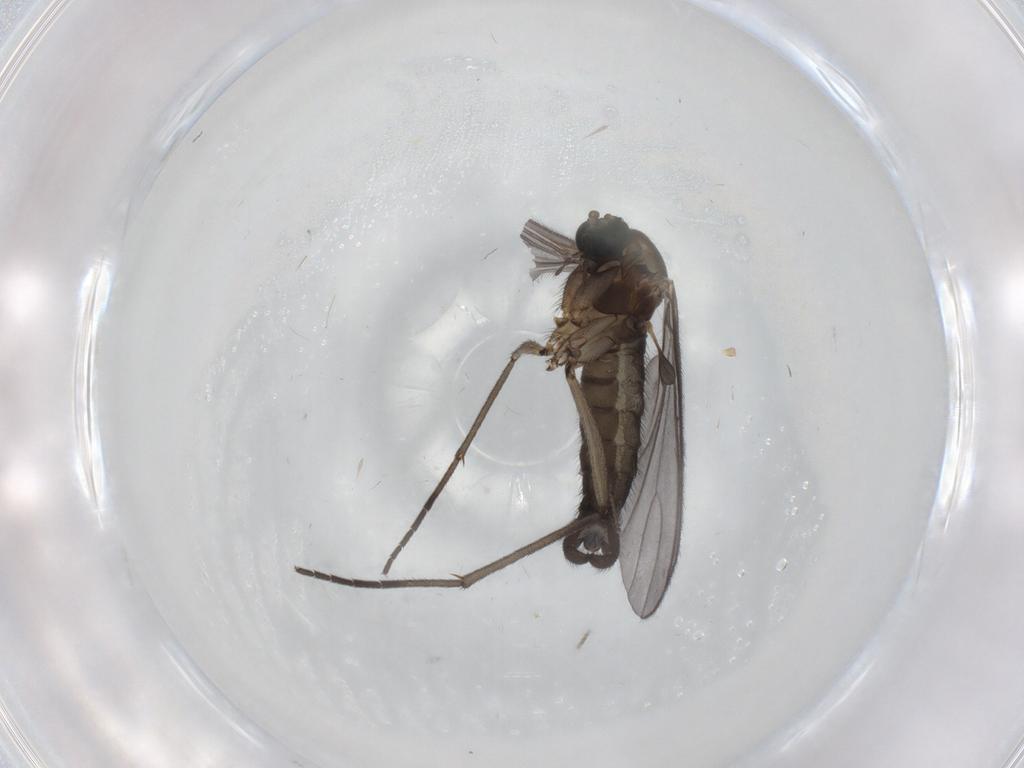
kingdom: Animalia
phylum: Arthropoda
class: Insecta
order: Diptera
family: Sciaridae
